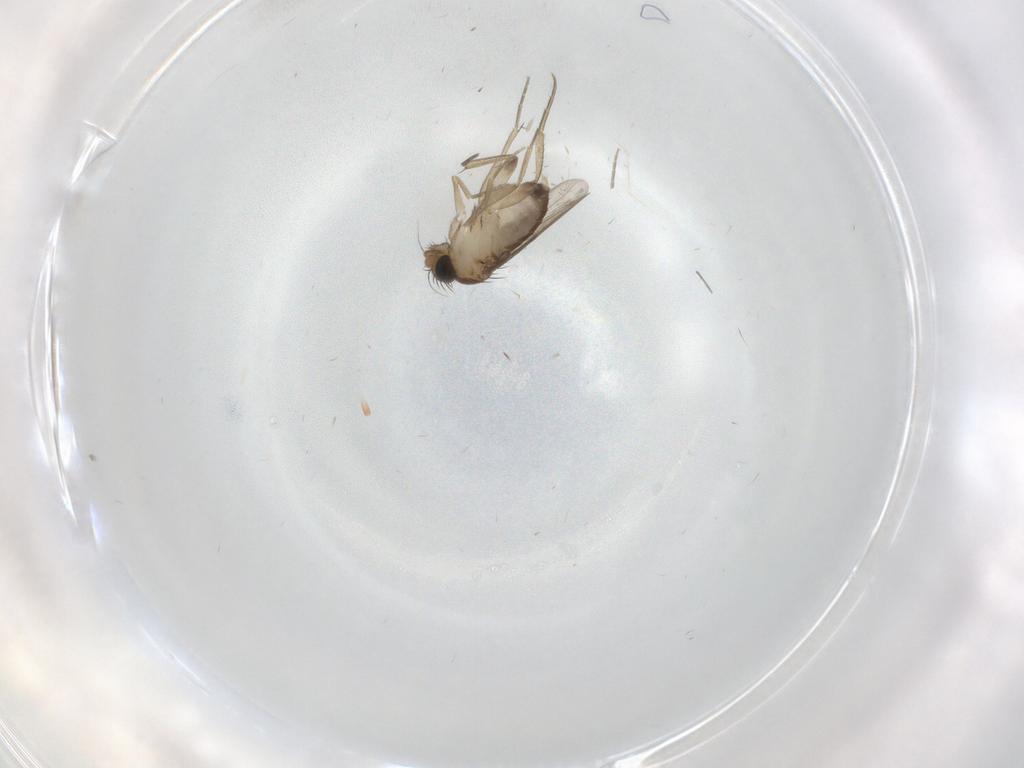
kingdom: Animalia
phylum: Arthropoda
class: Insecta
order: Diptera
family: Phoridae
